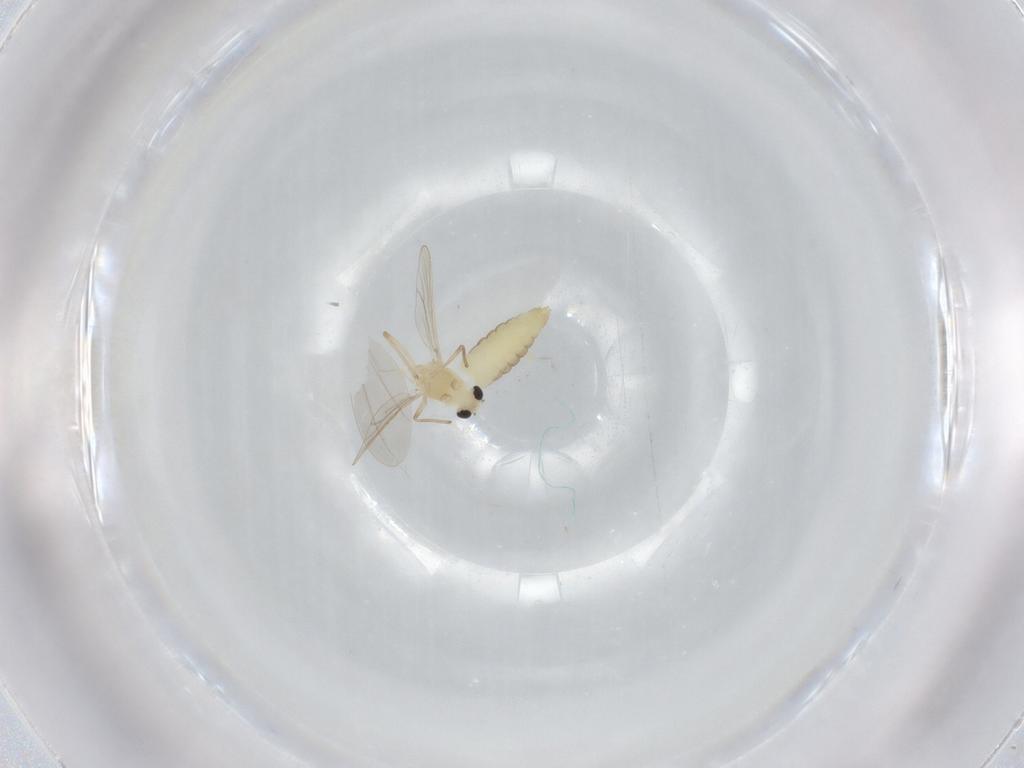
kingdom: Animalia
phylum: Arthropoda
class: Insecta
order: Diptera
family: Chironomidae
